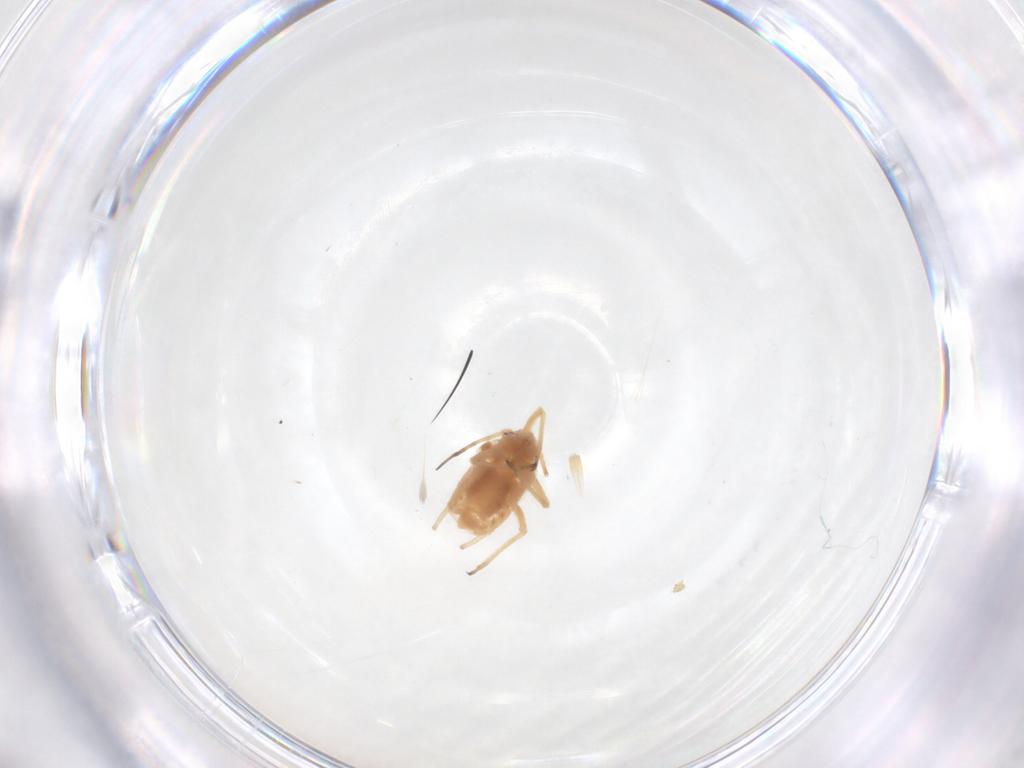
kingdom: Animalia
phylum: Arthropoda
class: Insecta
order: Hemiptera
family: Aphididae
